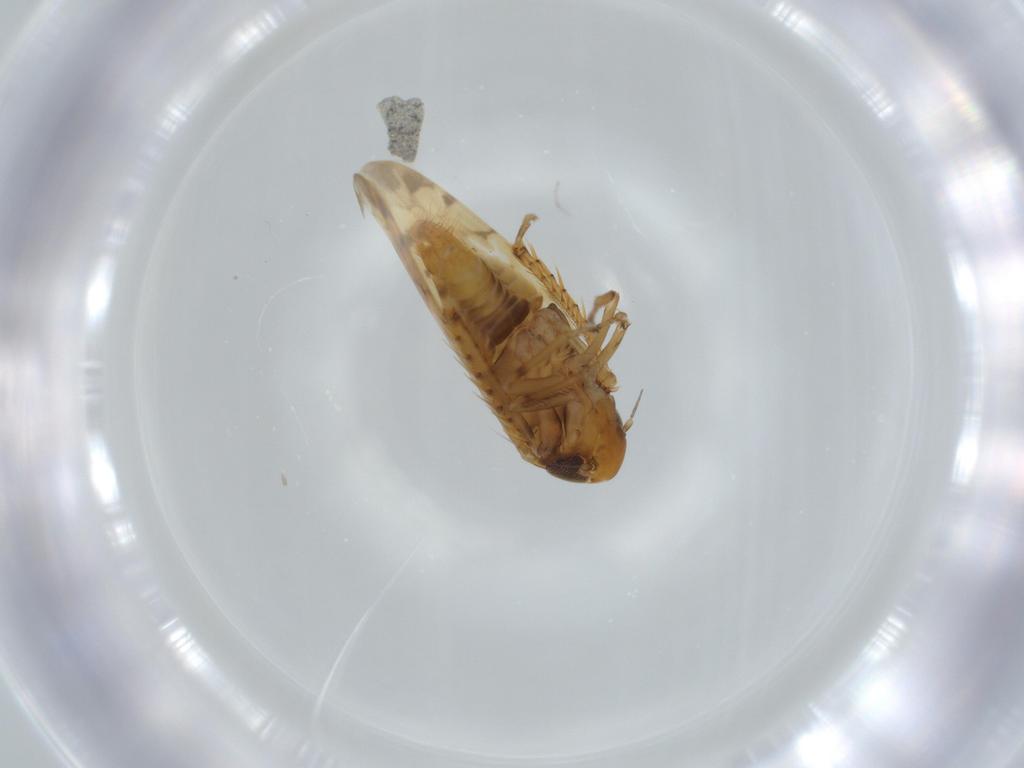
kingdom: Animalia
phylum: Arthropoda
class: Insecta
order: Hemiptera
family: Cicadellidae
